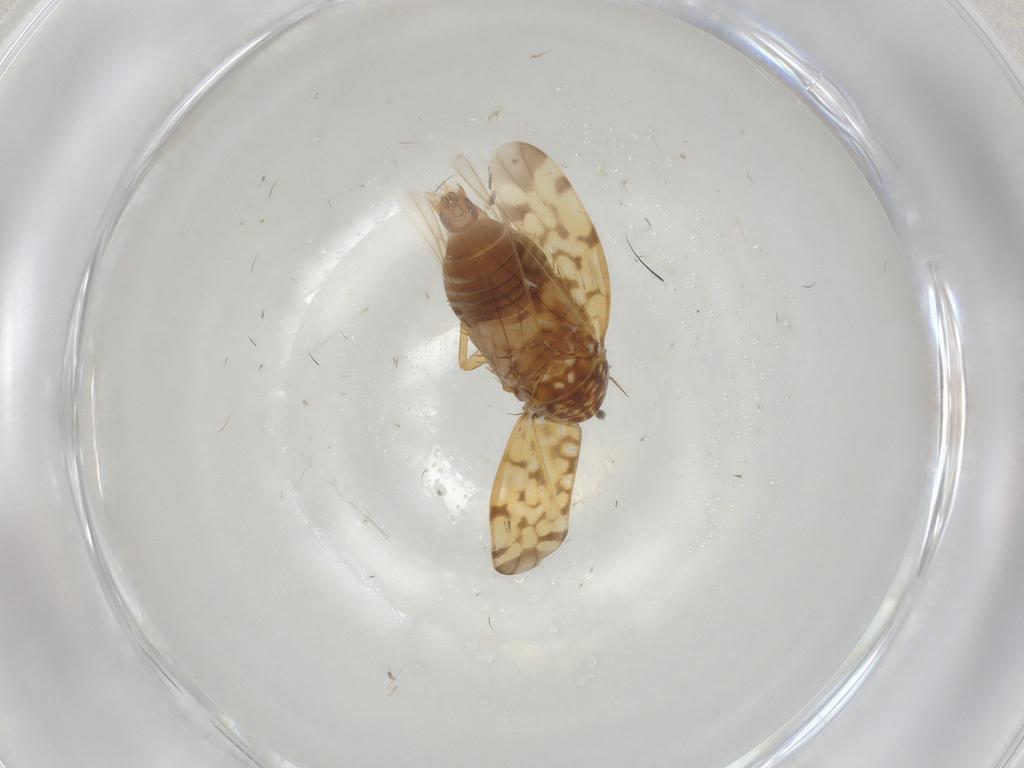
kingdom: Animalia
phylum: Arthropoda
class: Insecta
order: Hemiptera
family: Cicadellidae
